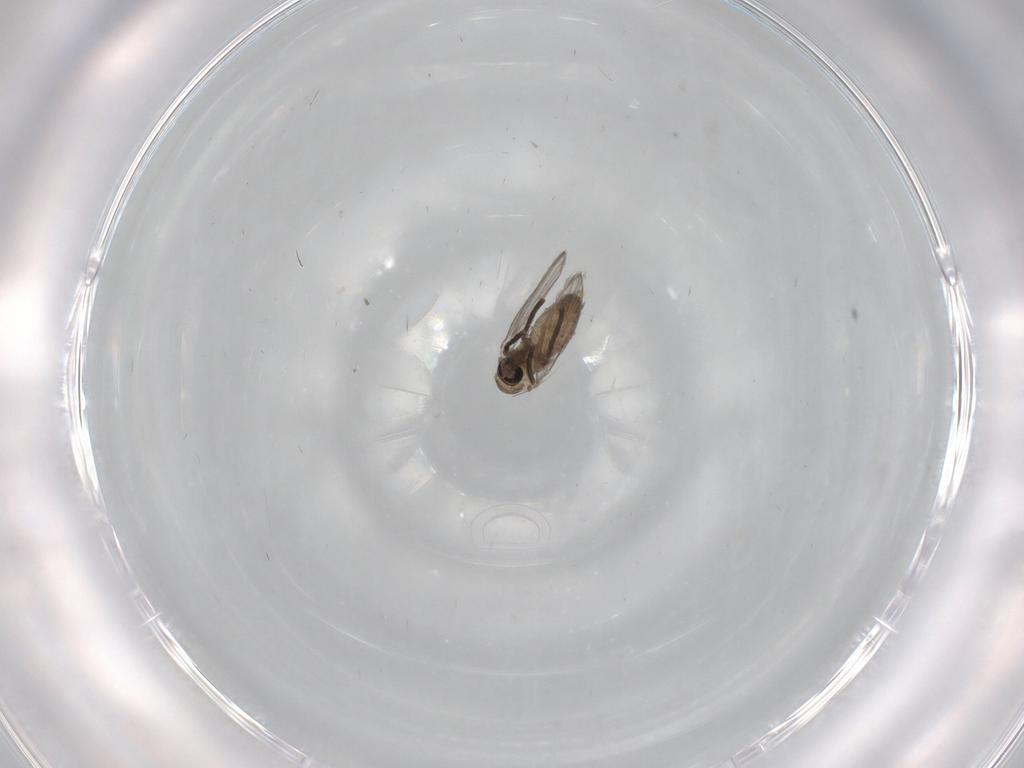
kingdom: Animalia
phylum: Arthropoda
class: Insecta
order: Diptera
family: Psychodidae
